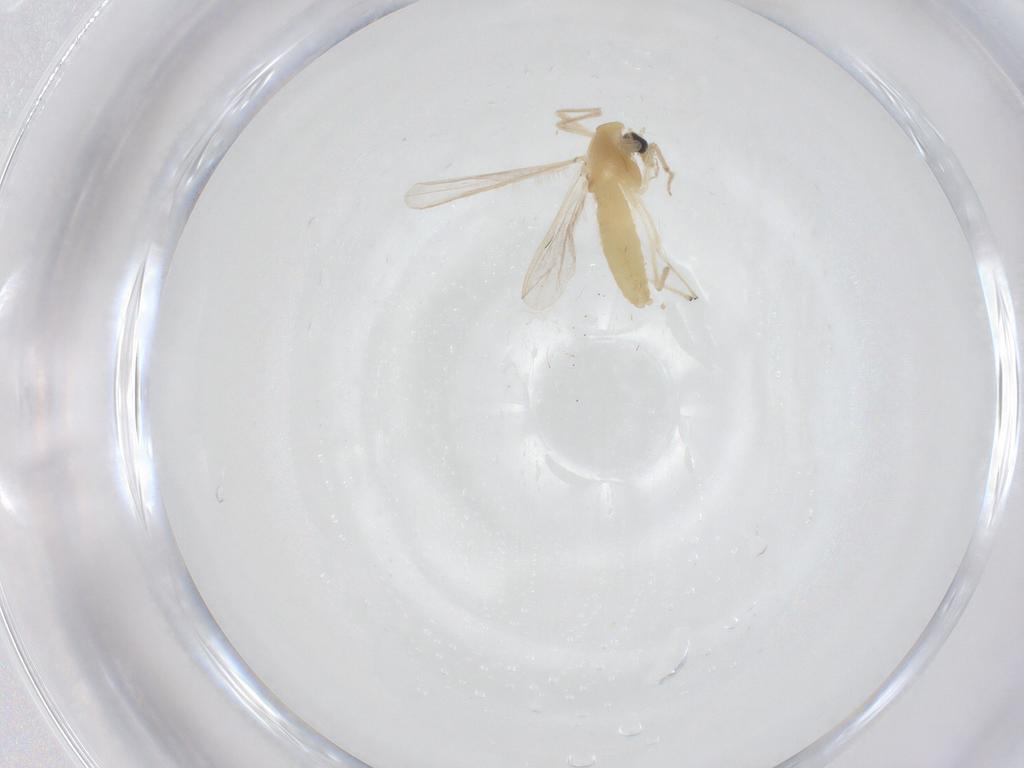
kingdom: Animalia
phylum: Arthropoda
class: Insecta
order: Diptera
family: Chironomidae
